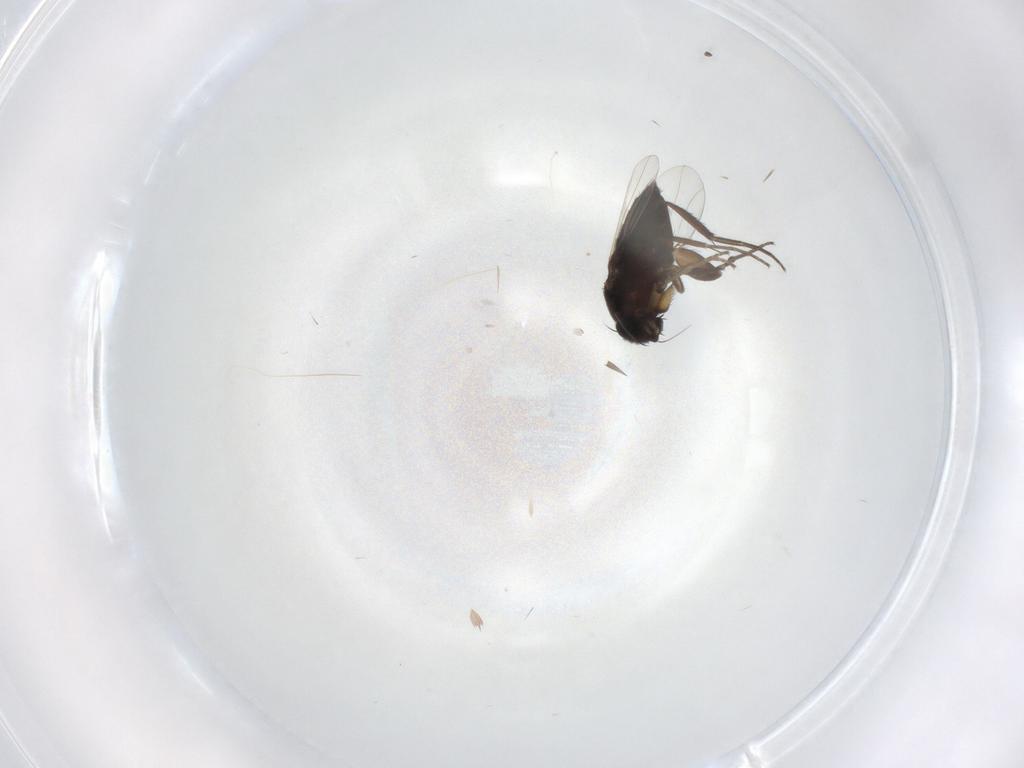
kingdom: Animalia
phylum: Arthropoda
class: Insecta
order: Diptera
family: Phoridae
